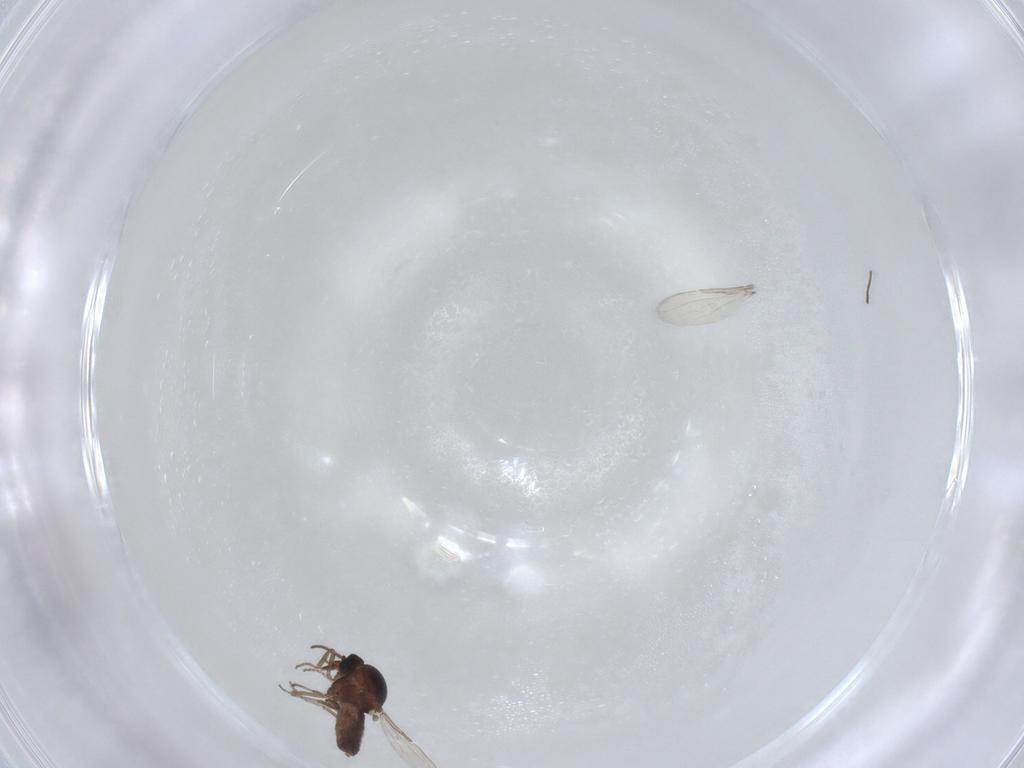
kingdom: Animalia
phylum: Arthropoda
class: Insecta
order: Diptera
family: Ceratopogonidae
